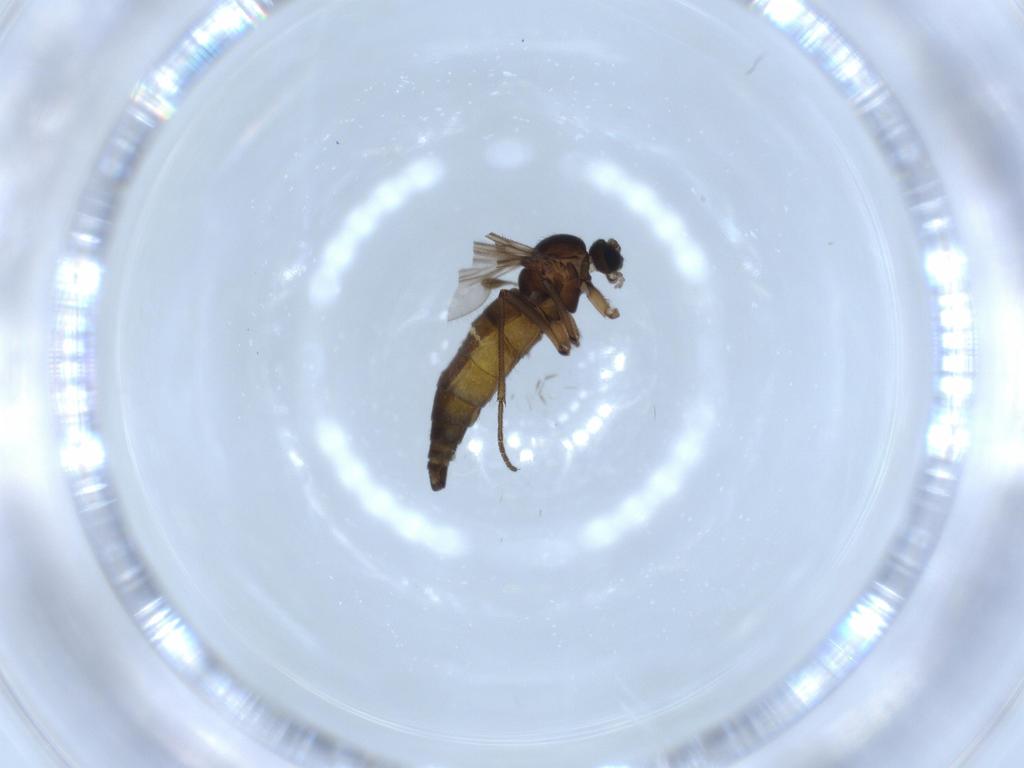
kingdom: Animalia
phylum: Arthropoda
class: Insecta
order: Diptera
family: Sciaridae
